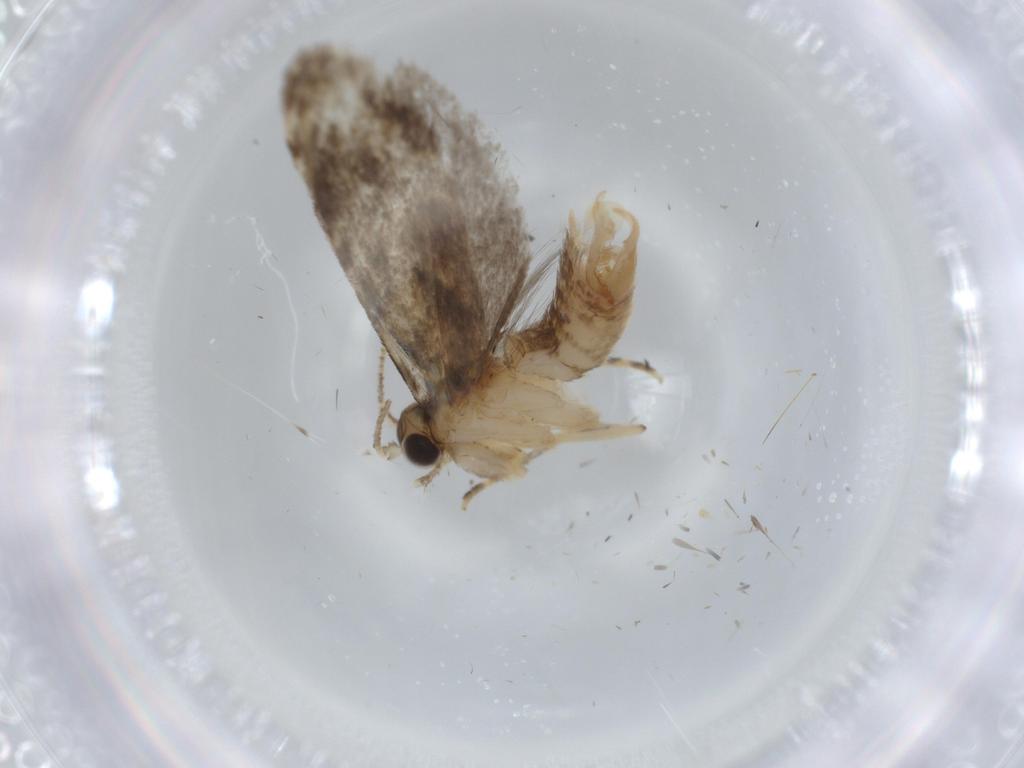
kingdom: Animalia
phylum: Arthropoda
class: Insecta
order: Lepidoptera
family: Tineidae
